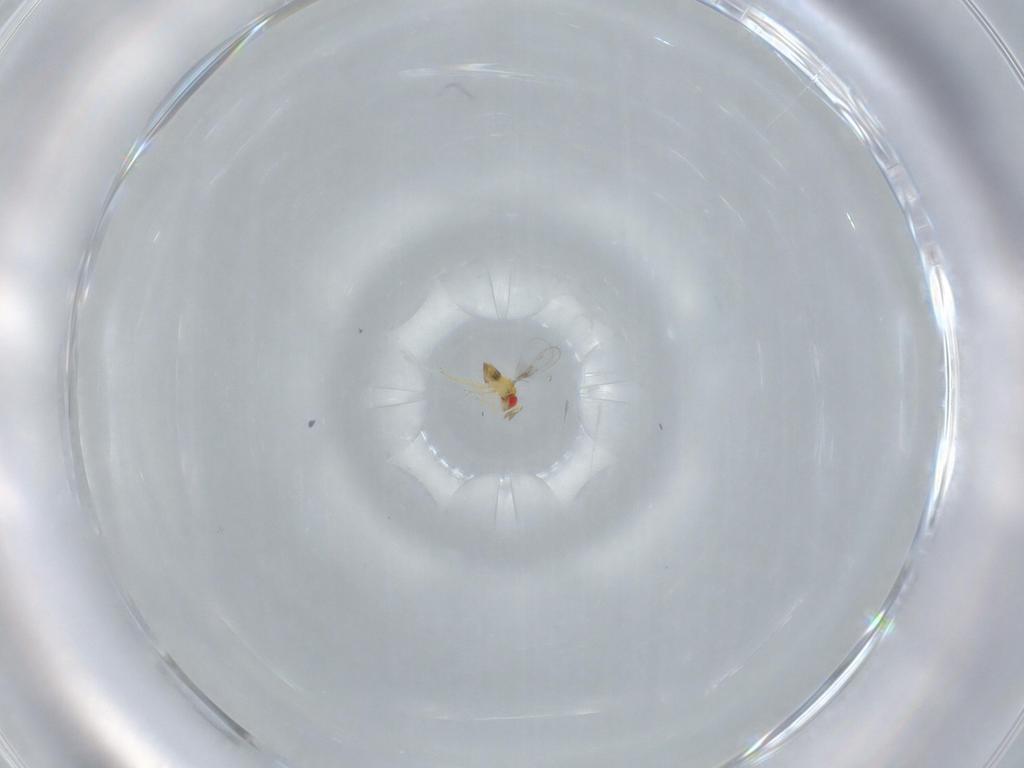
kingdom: Animalia
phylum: Arthropoda
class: Insecta
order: Hymenoptera
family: Trichogrammatidae
